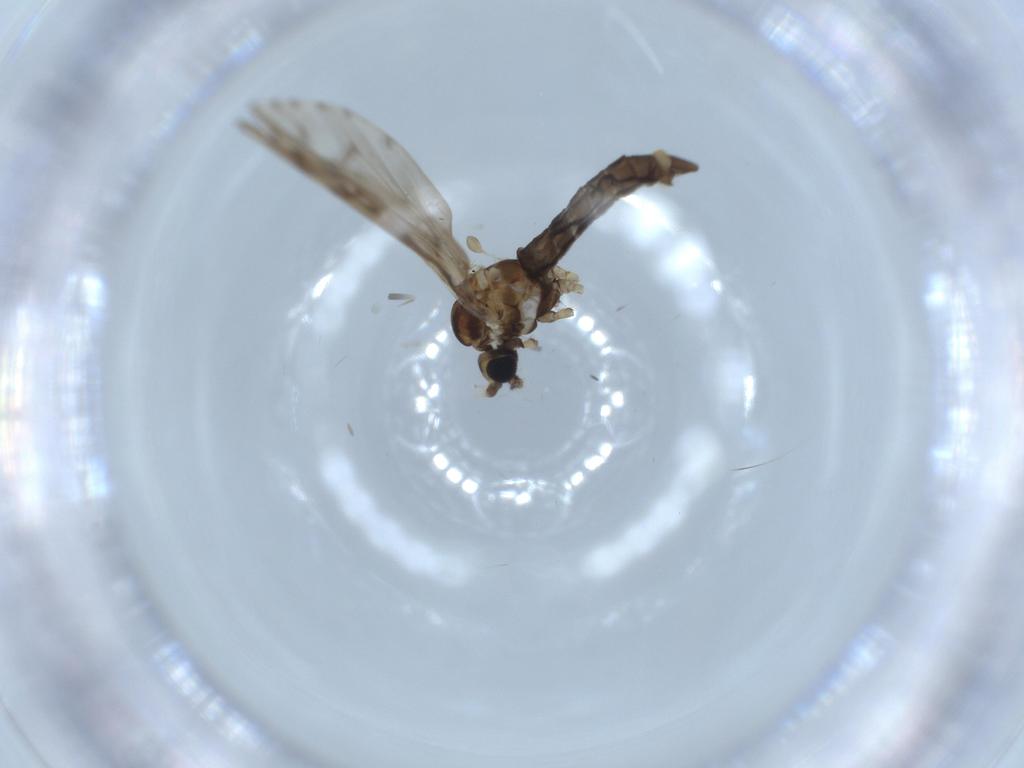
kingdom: Animalia
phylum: Arthropoda
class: Insecta
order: Diptera
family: Limoniidae
